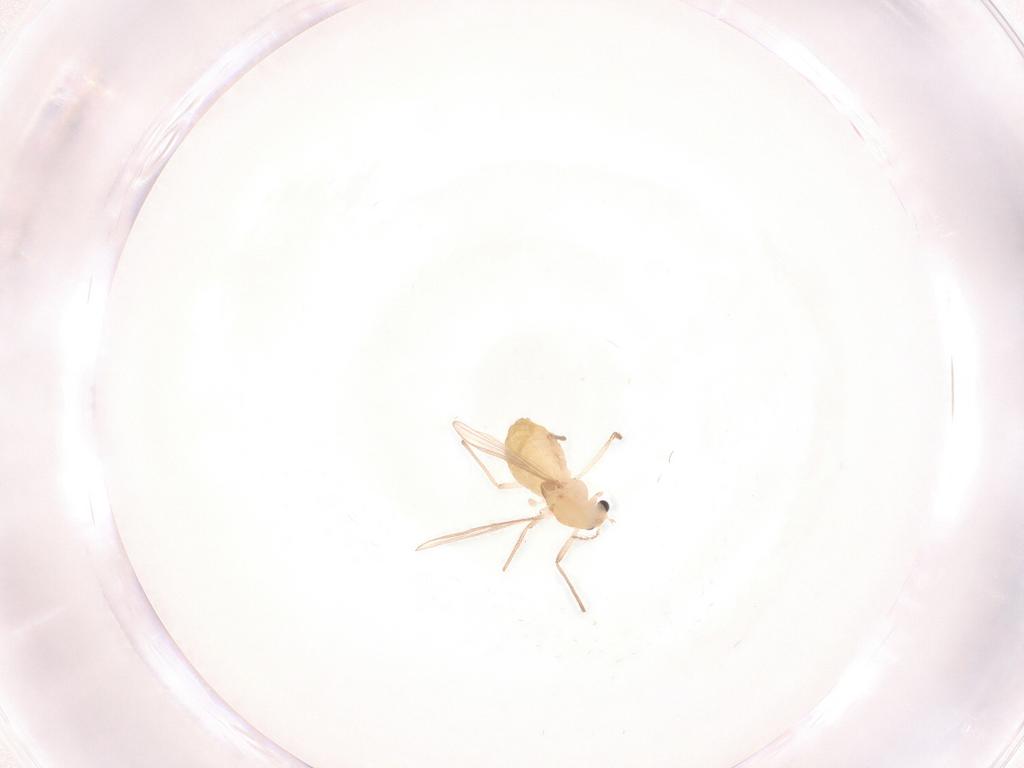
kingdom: Animalia
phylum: Arthropoda
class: Insecta
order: Diptera
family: Chironomidae
